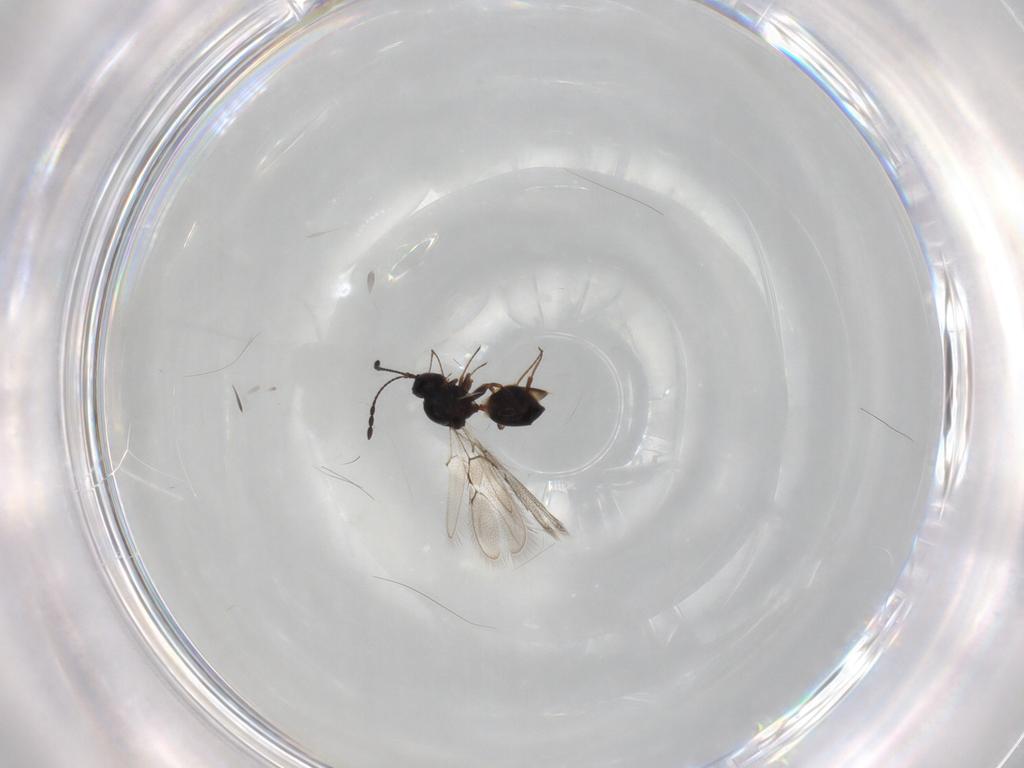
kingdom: Animalia
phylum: Arthropoda
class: Insecta
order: Hymenoptera
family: Figitidae
